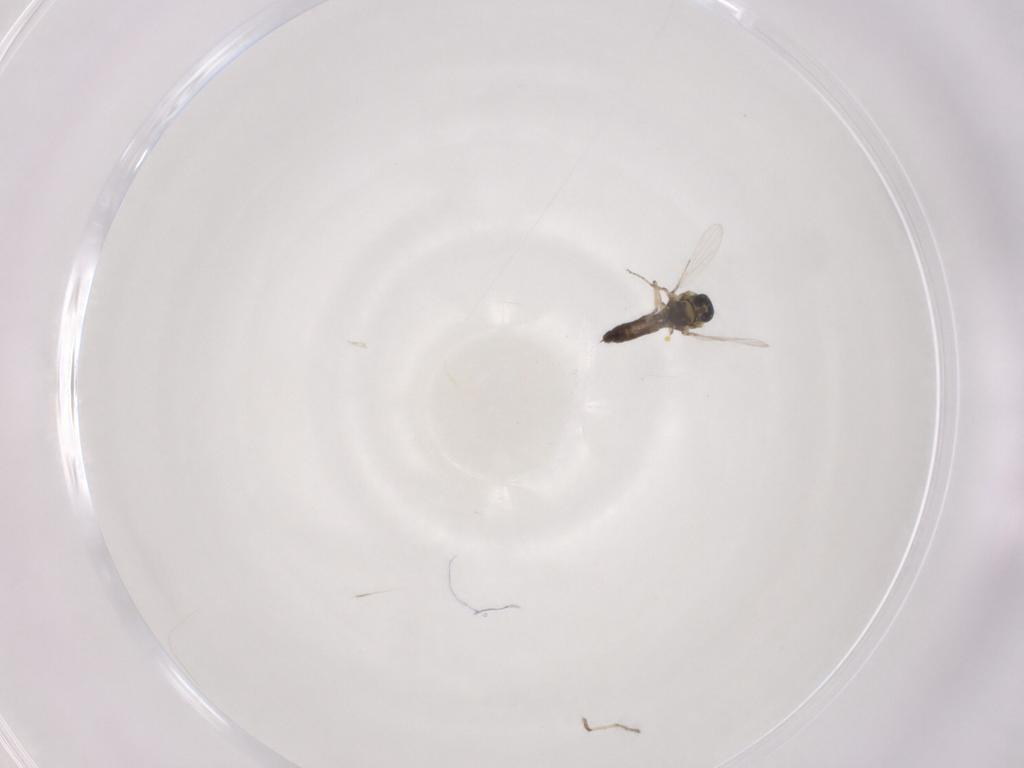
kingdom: Animalia
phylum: Arthropoda
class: Insecta
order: Diptera
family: Ceratopogonidae
